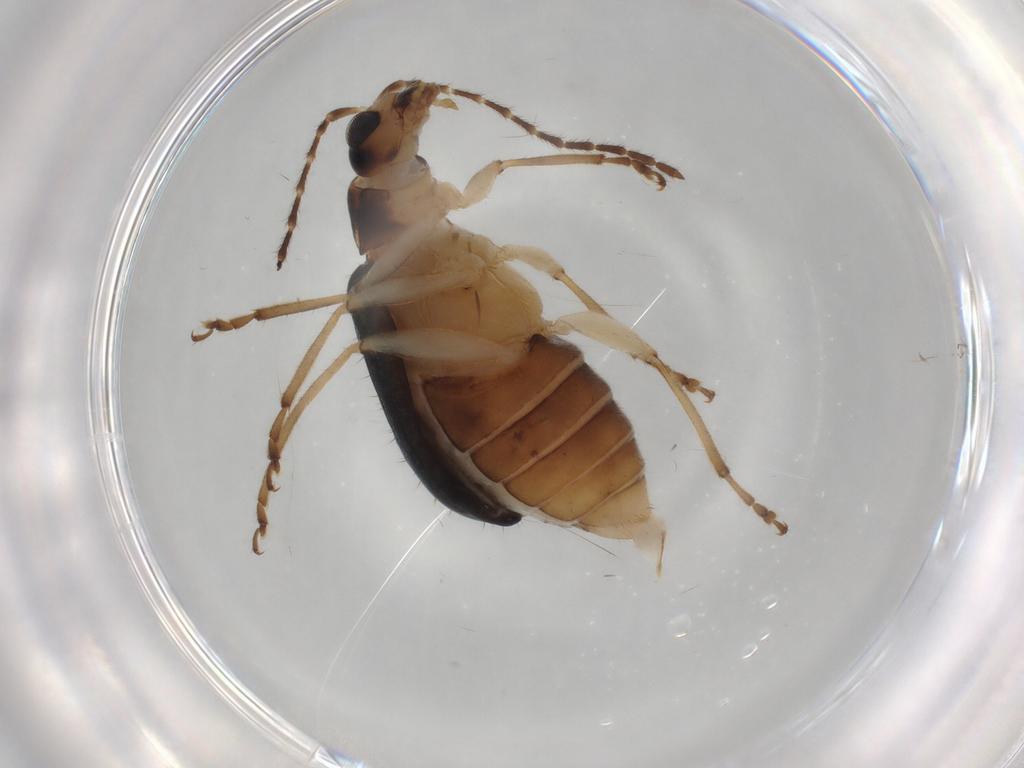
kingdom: Animalia
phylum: Arthropoda
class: Insecta
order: Coleoptera
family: Chrysomelidae
